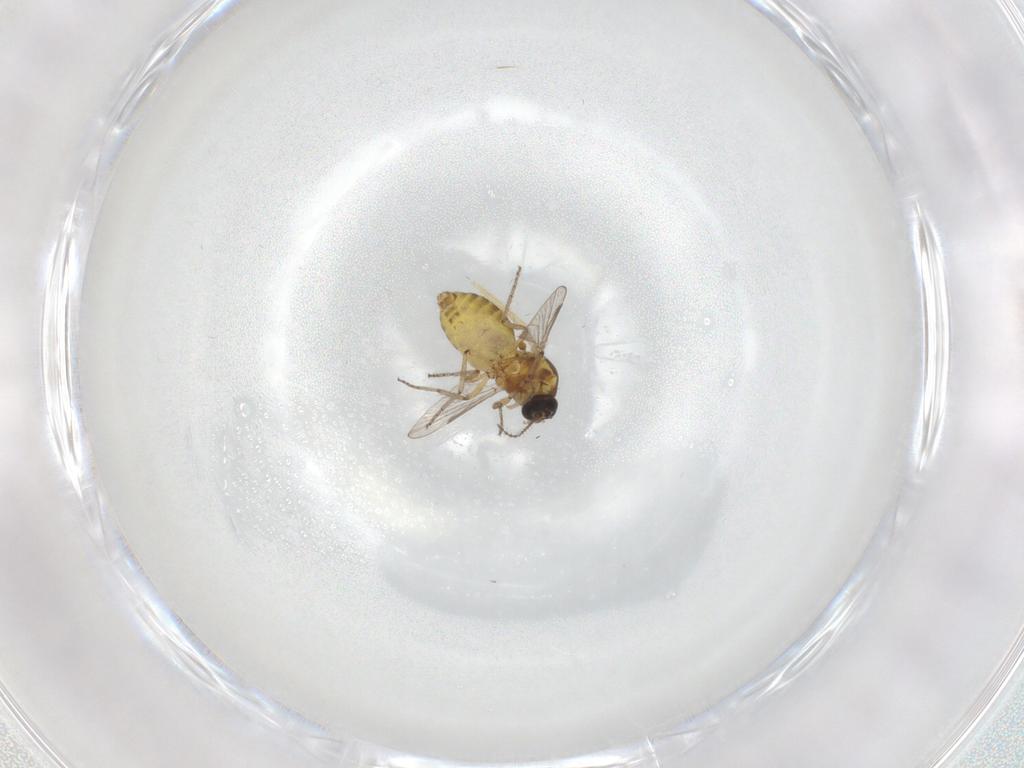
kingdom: Animalia
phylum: Arthropoda
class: Insecta
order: Diptera
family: Ceratopogonidae
